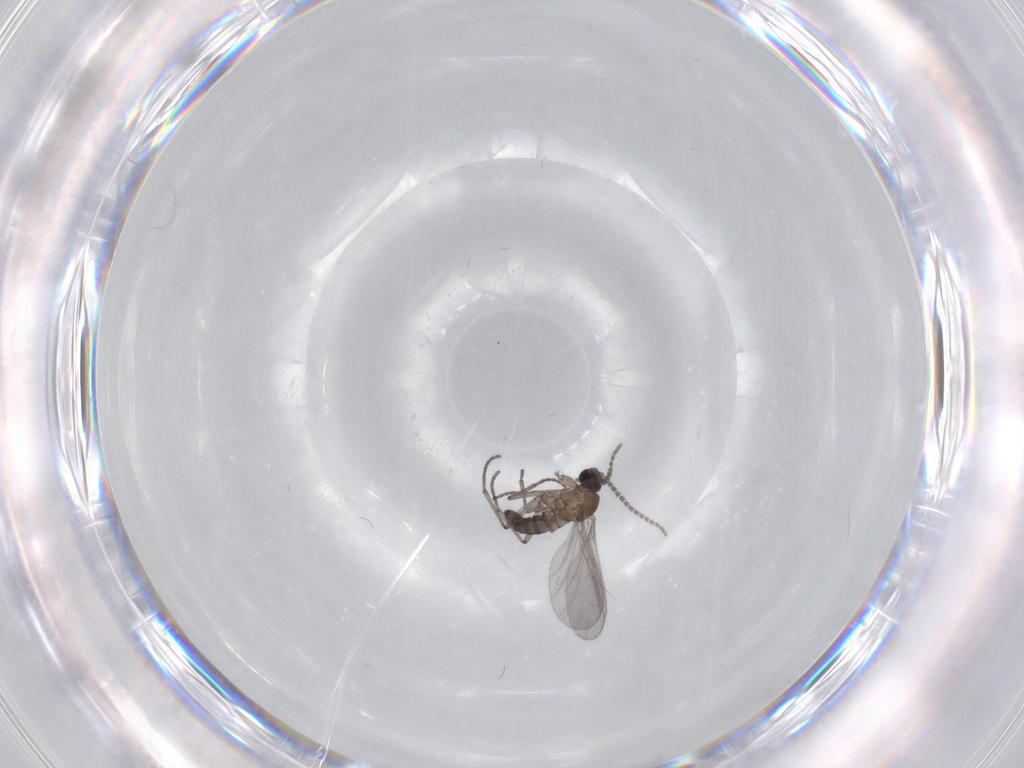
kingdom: Animalia
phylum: Arthropoda
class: Insecta
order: Diptera
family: Sciaridae
